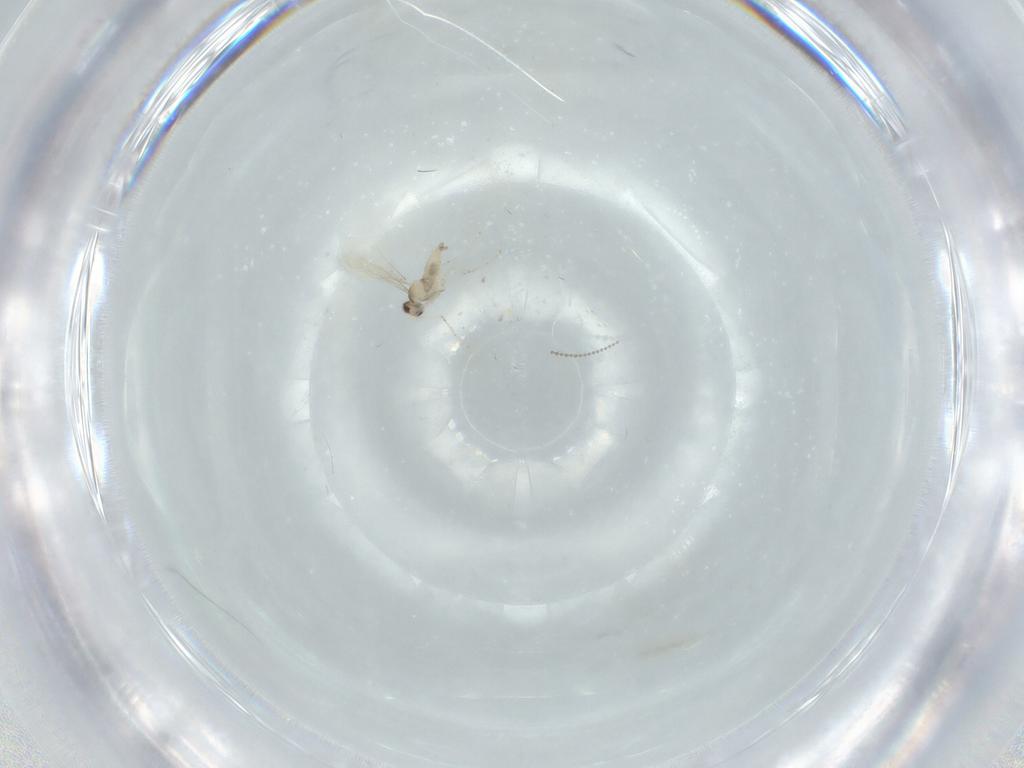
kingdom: Animalia
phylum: Arthropoda
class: Insecta
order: Diptera
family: Cecidomyiidae
